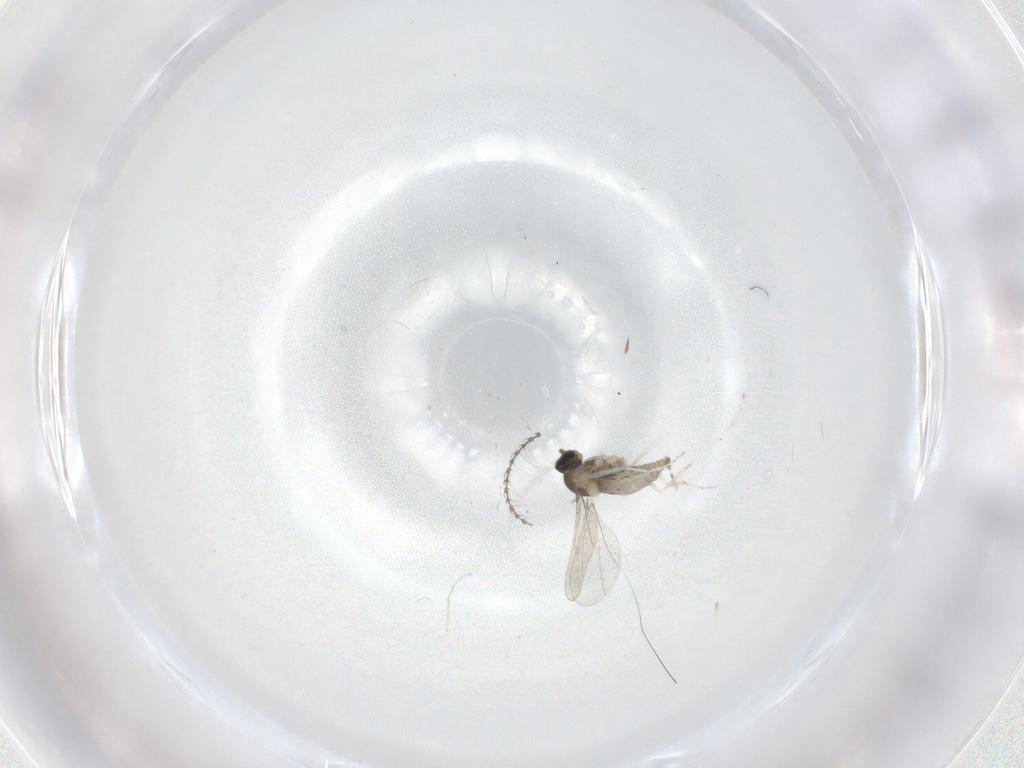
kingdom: Animalia
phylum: Arthropoda
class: Insecta
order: Diptera
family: Cecidomyiidae
